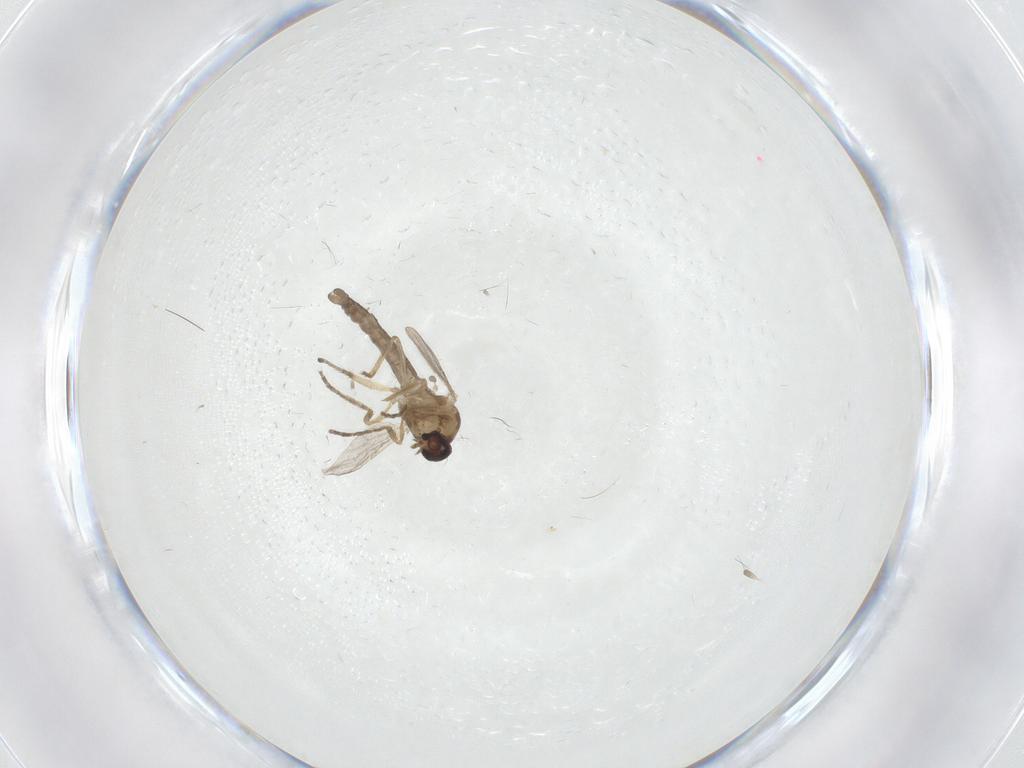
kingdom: Animalia
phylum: Arthropoda
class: Insecta
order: Diptera
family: Ceratopogonidae
